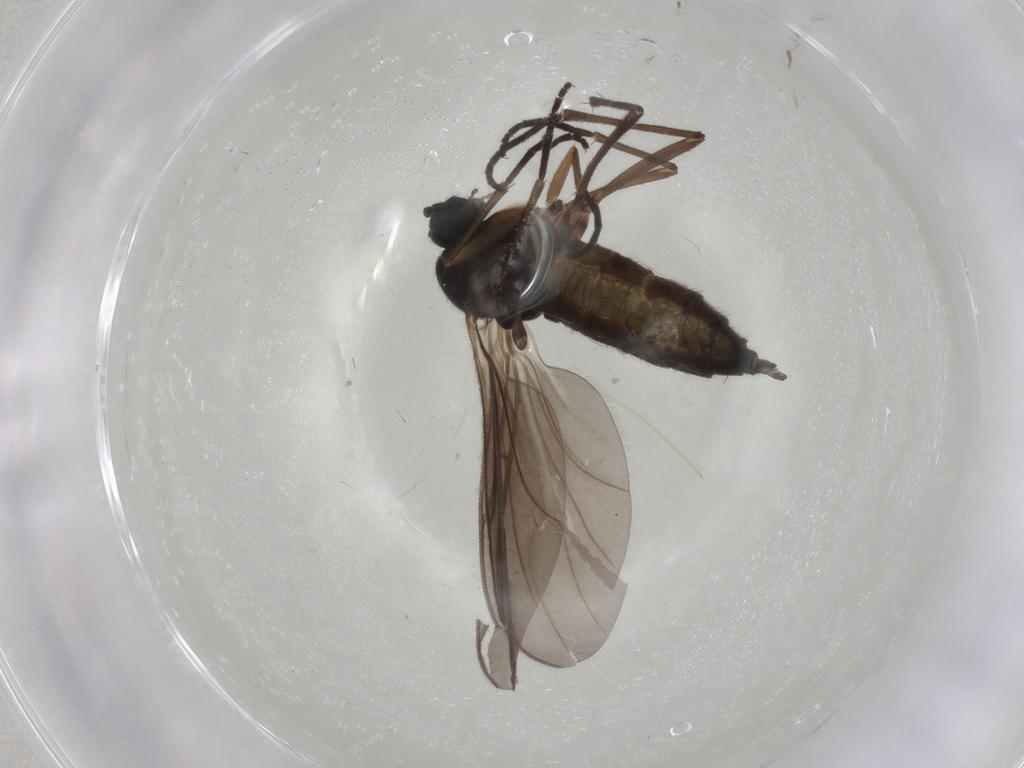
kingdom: Animalia
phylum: Arthropoda
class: Insecta
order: Diptera
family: Sciaridae
